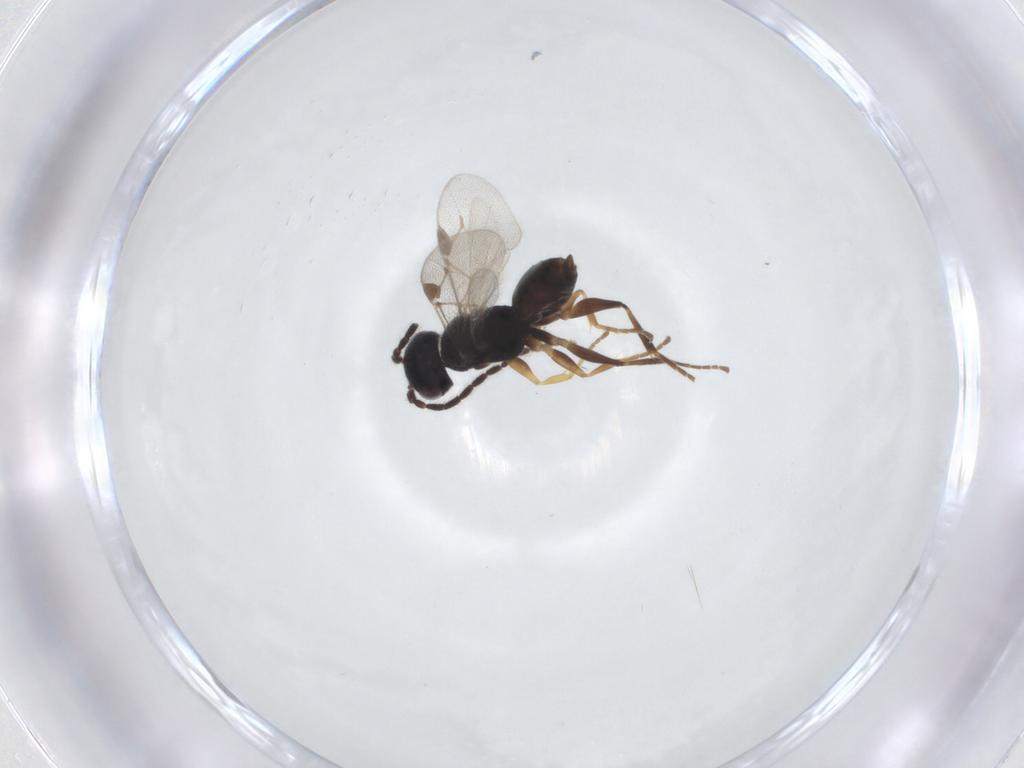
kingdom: Animalia
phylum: Arthropoda
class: Insecta
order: Hymenoptera
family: Dryinidae
